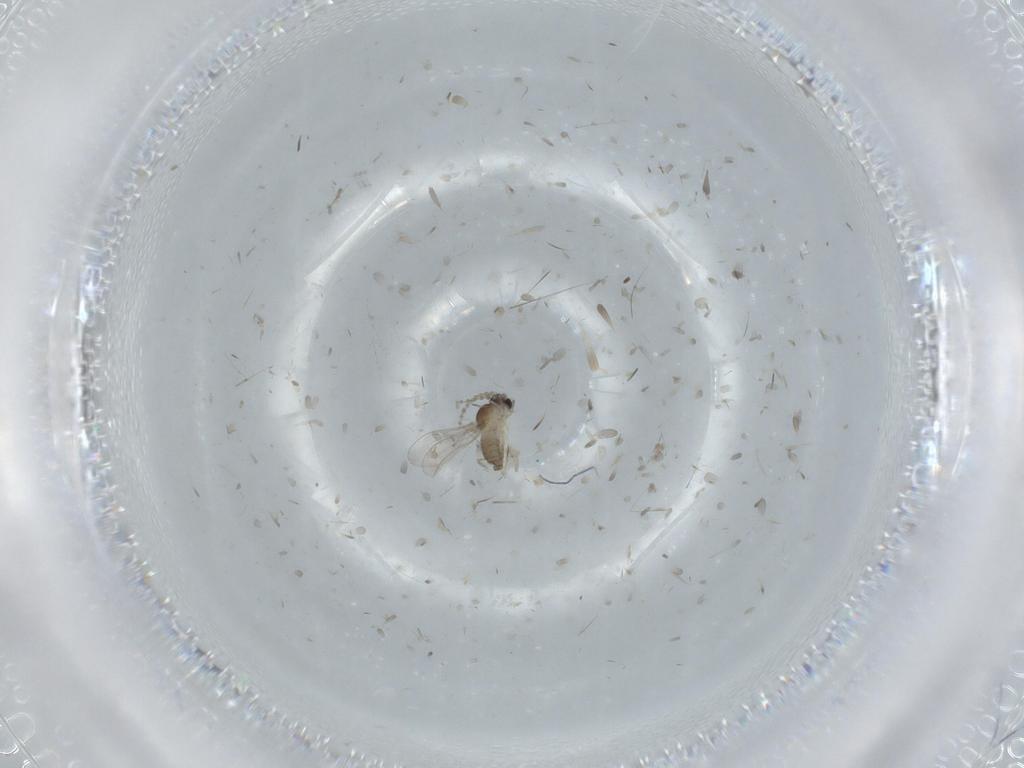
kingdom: Animalia
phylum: Arthropoda
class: Insecta
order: Diptera
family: Cecidomyiidae
